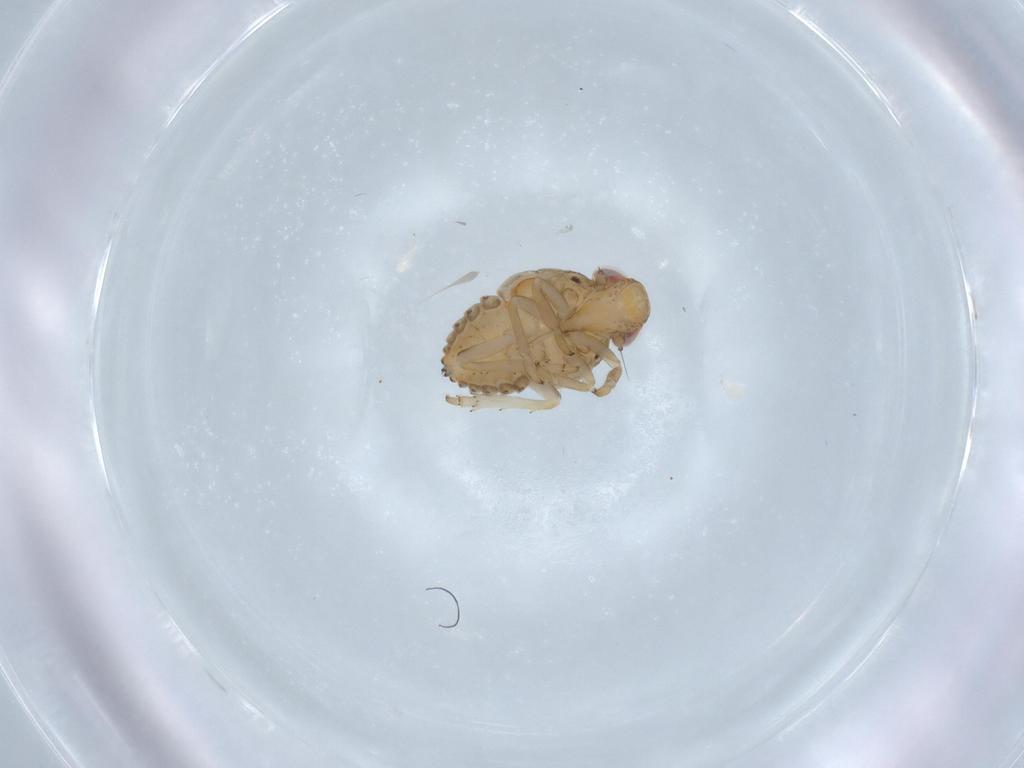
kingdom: Animalia
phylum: Arthropoda
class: Insecta
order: Hemiptera
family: Issidae
